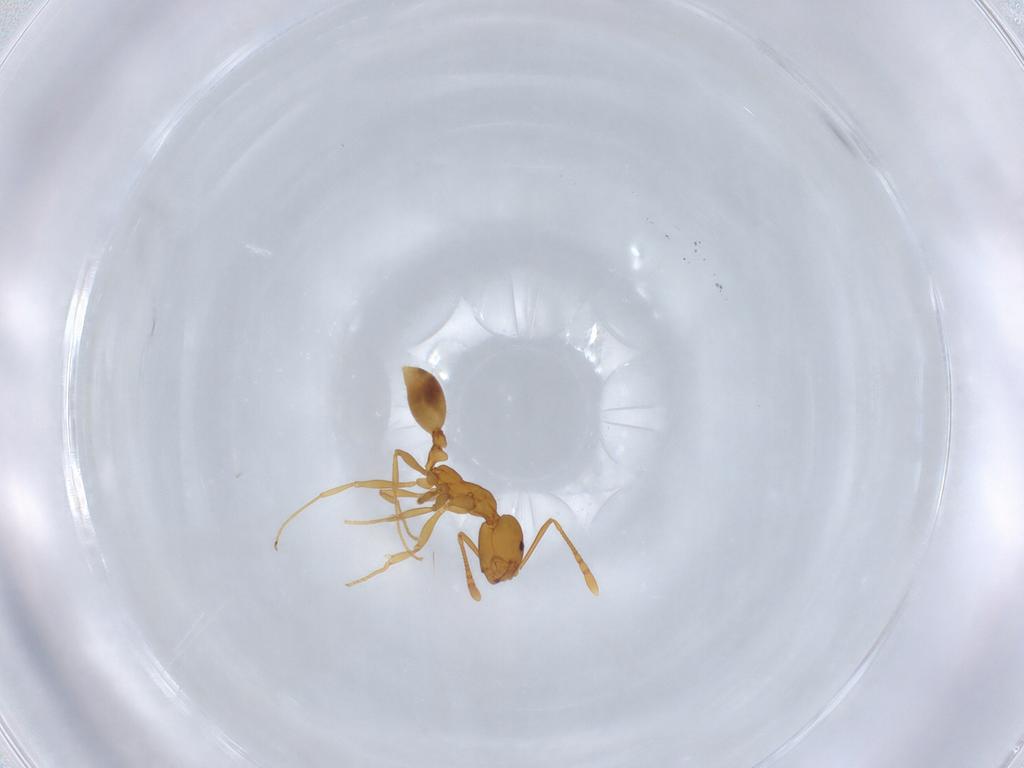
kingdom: Animalia
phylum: Arthropoda
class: Insecta
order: Hymenoptera
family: Formicidae
